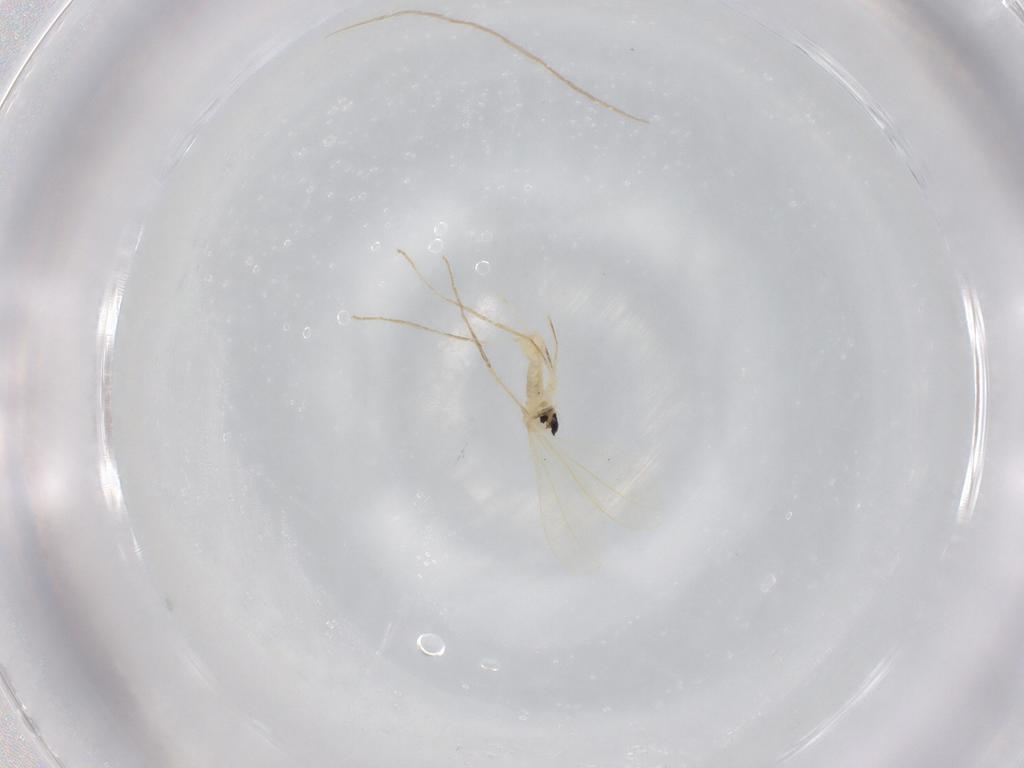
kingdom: Animalia
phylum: Arthropoda
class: Insecta
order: Diptera
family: Cecidomyiidae
